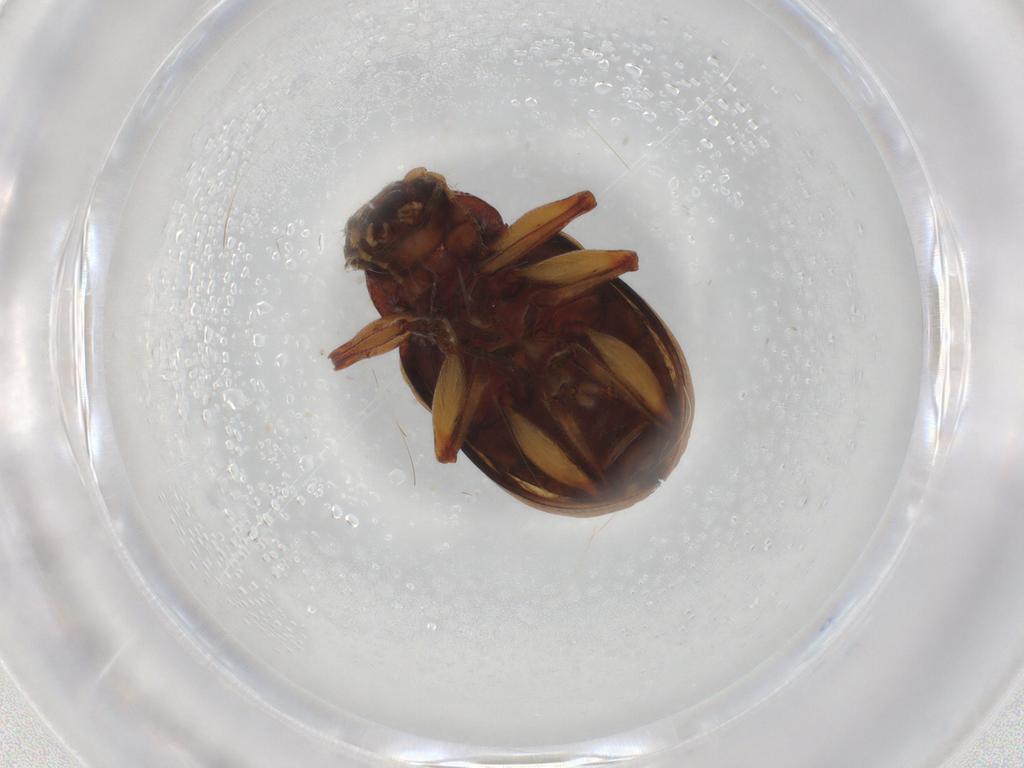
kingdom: Animalia
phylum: Arthropoda
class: Insecta
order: Coleoptera
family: Chrysomelidae
